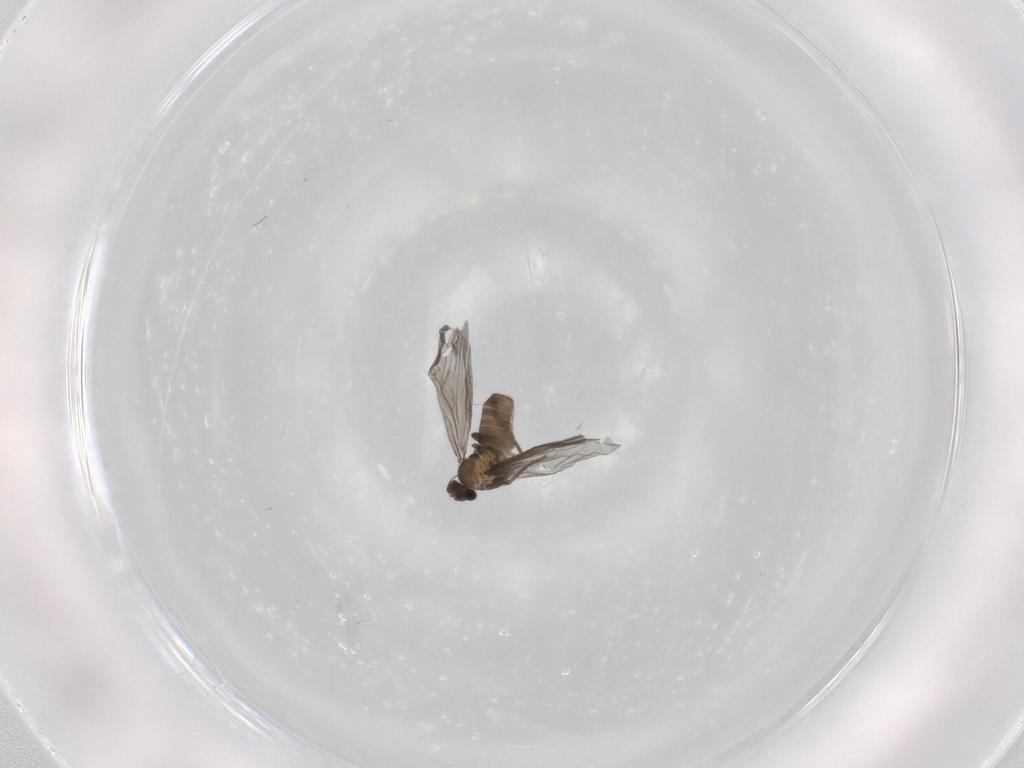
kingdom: Animalia
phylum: Arthropoda
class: Insecta
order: Diptera
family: Phoridae
